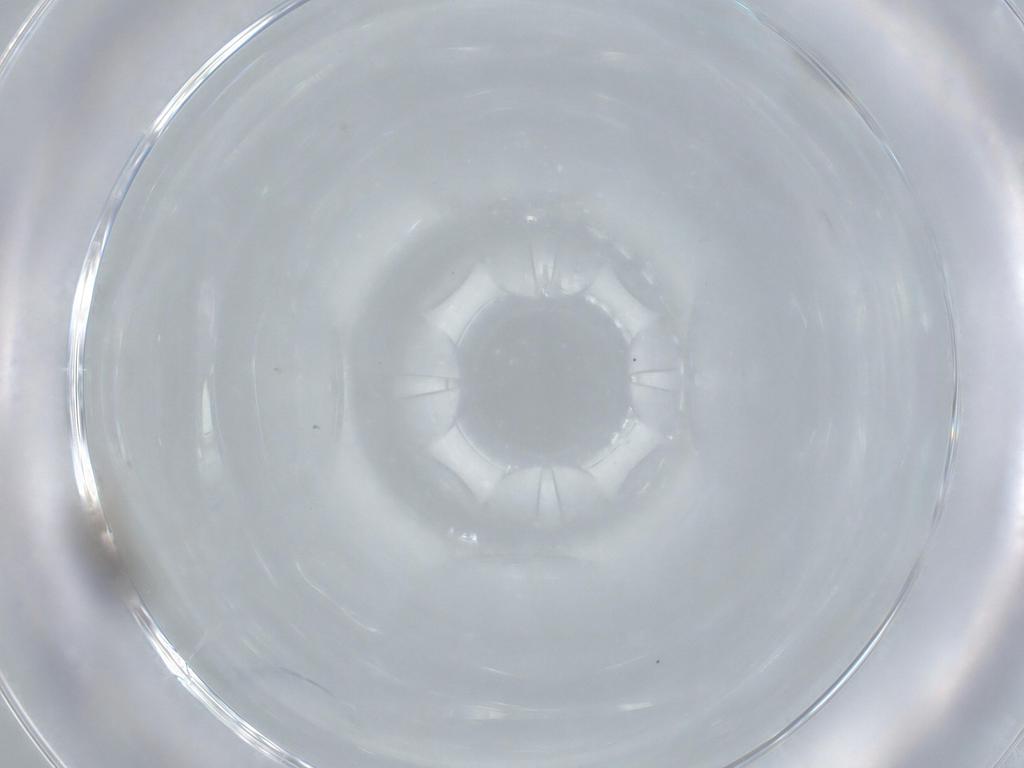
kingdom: Animalia
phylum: Arthropoda
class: Insecta
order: Hymenoptera
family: Scelionidae
